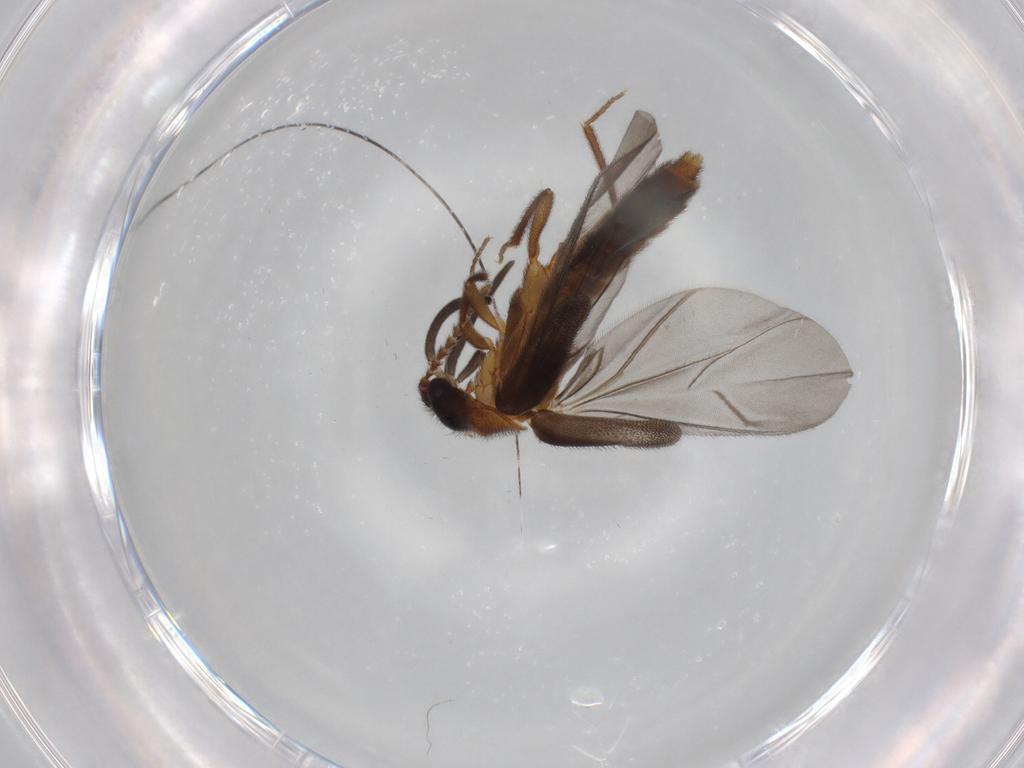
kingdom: Animalia
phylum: Arthropoda
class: Insecta
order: Coleoptera
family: Omethidae
